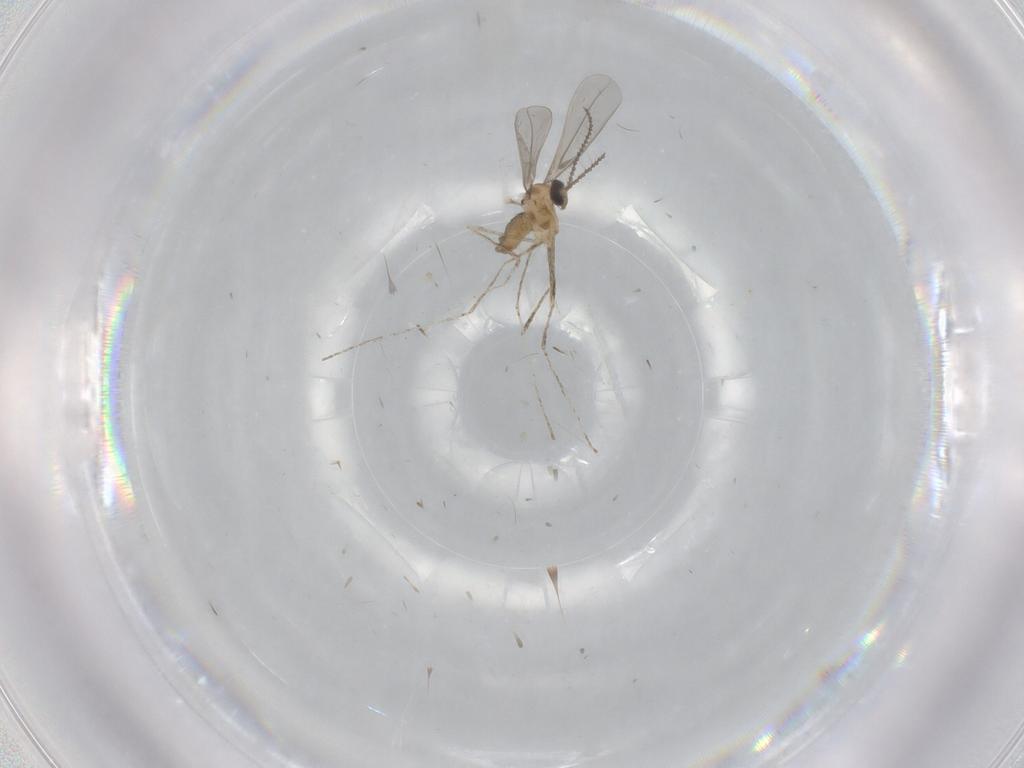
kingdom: Animalia
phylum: Arthropoda
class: Insecta
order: Diptera
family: Cecidomyiidae
